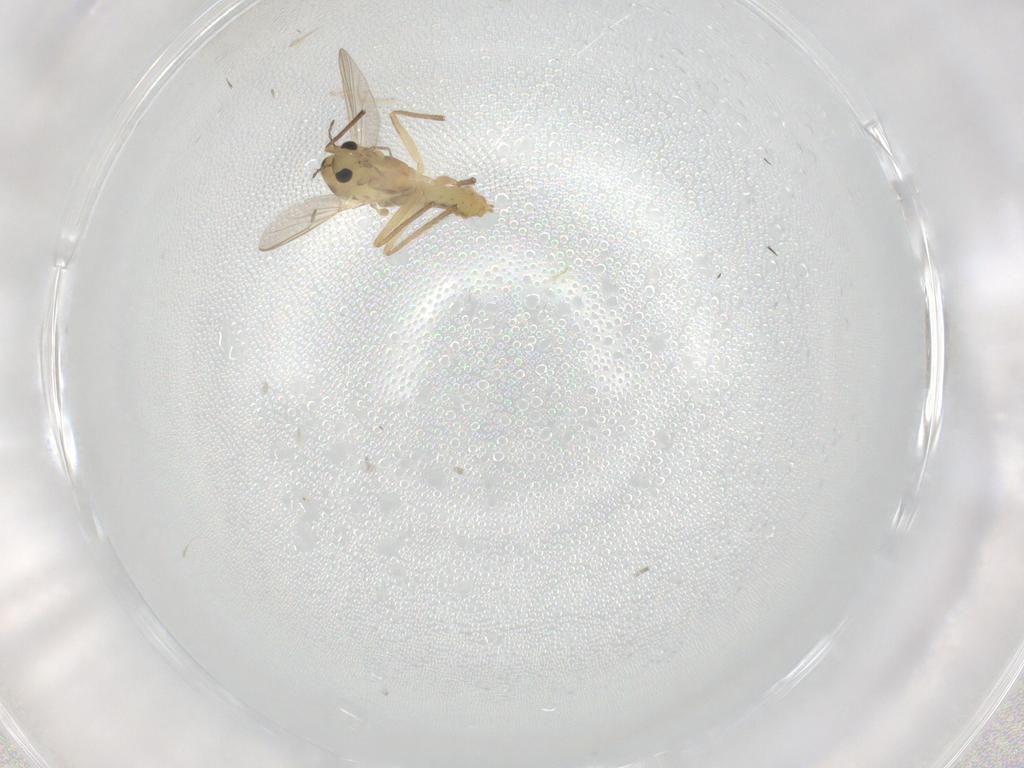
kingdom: Animalia
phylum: Arthropoda
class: Insecta
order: Diptera
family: Chironomidae
